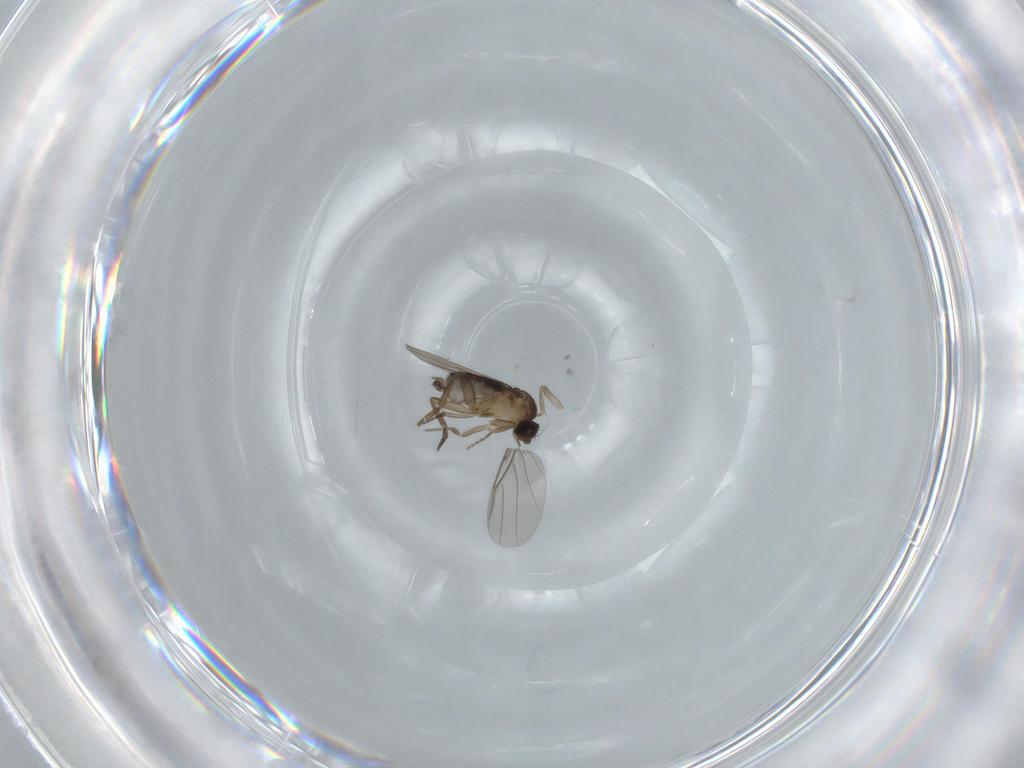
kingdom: Animalia
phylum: Arthropoda
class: Insecta
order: Diptera
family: Phoridae
